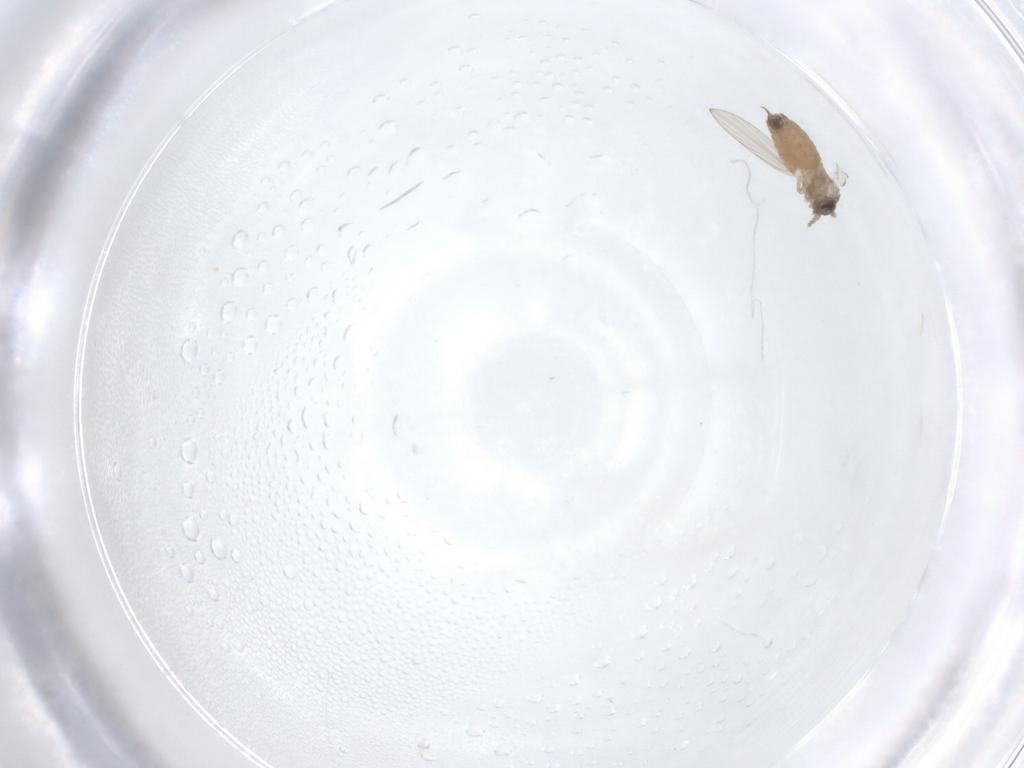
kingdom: Animalia
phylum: Arthropoda
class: Insecta
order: Diptera
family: Psychodidae
